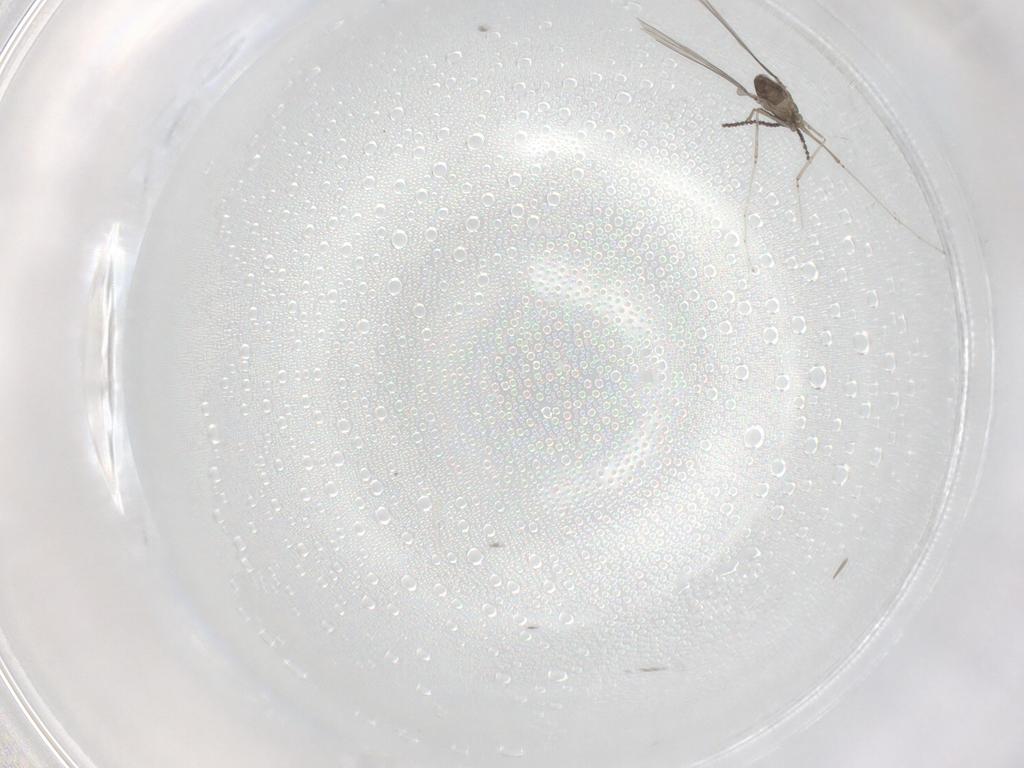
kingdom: Animalia
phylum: Arthropoda
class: Insecta
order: Diptera
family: Cecidomyiidae
